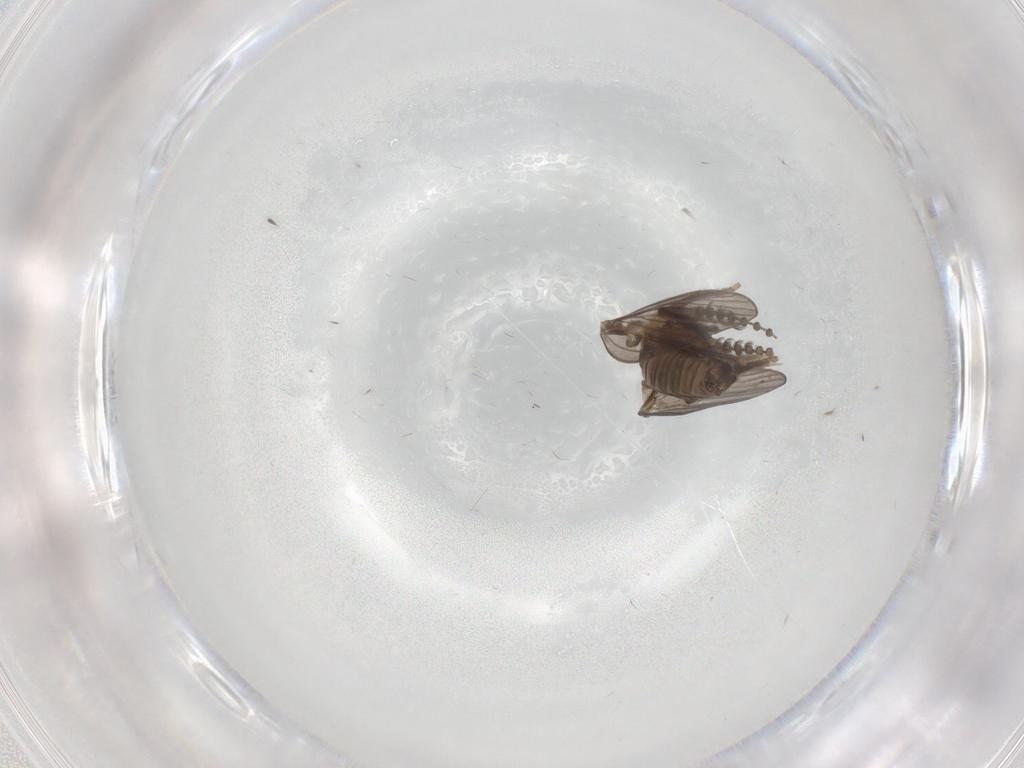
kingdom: Animalia
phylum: Arthropoda
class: Insecta
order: Diptera
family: Psychodidae
